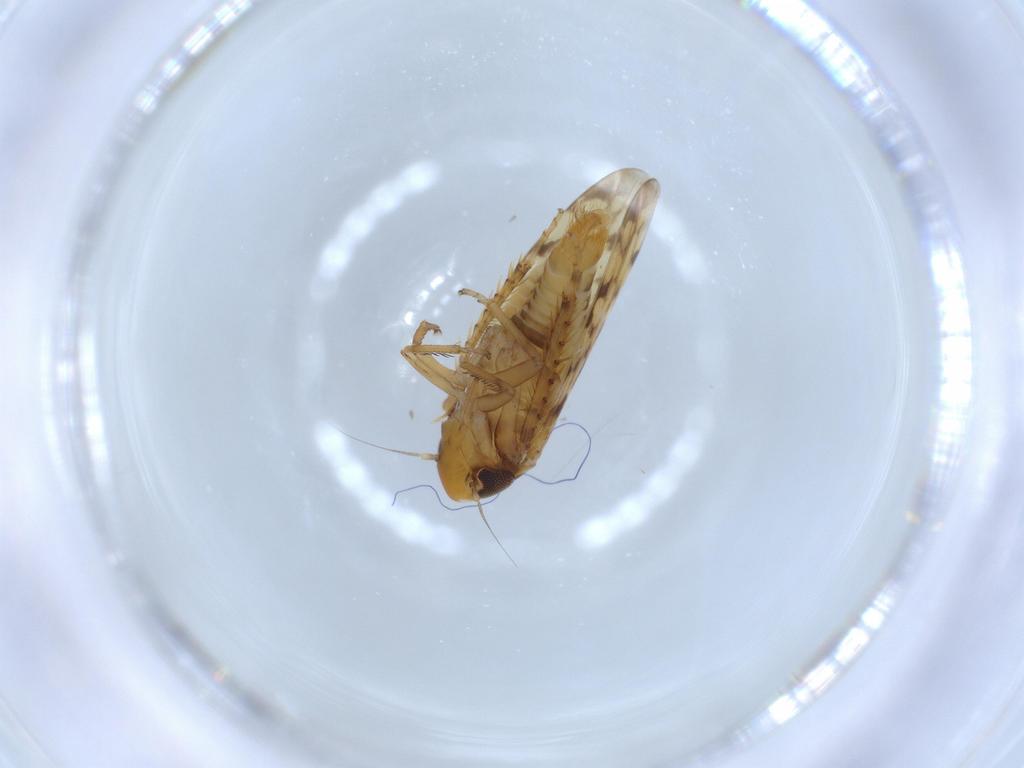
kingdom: Animalia
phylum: Arthropoda
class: Insecta
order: Hemiptera
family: Cicadellidae
